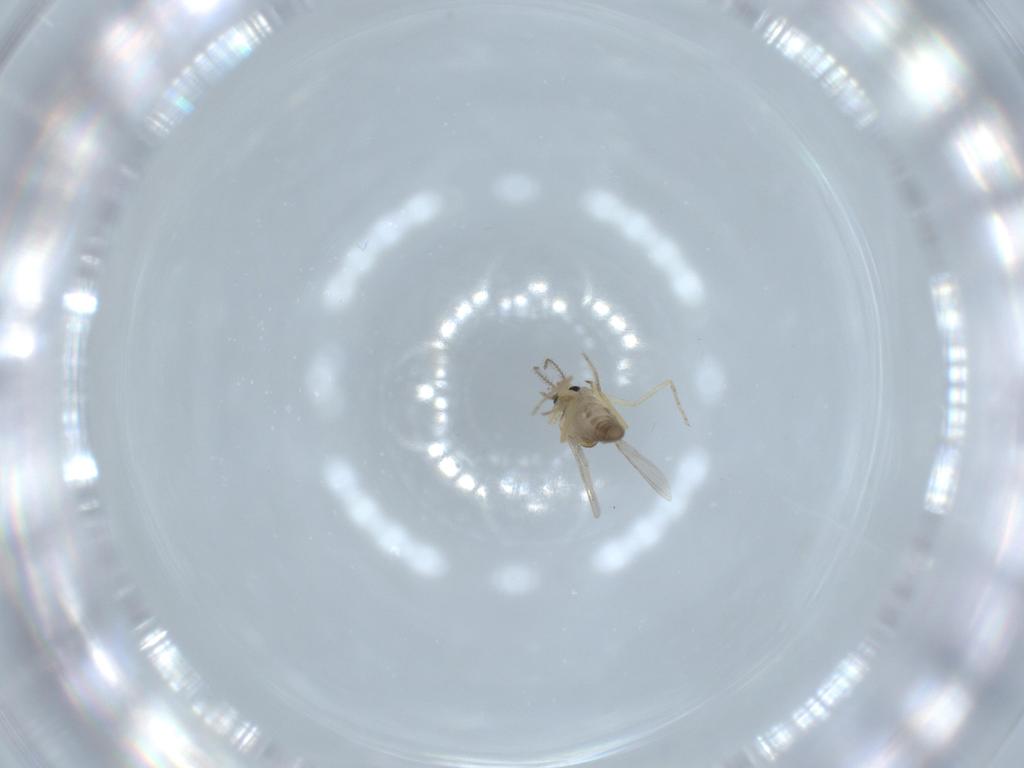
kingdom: Animalia
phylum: Arthropoda
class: Insecta
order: Diptera
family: Ceratopogonidae
